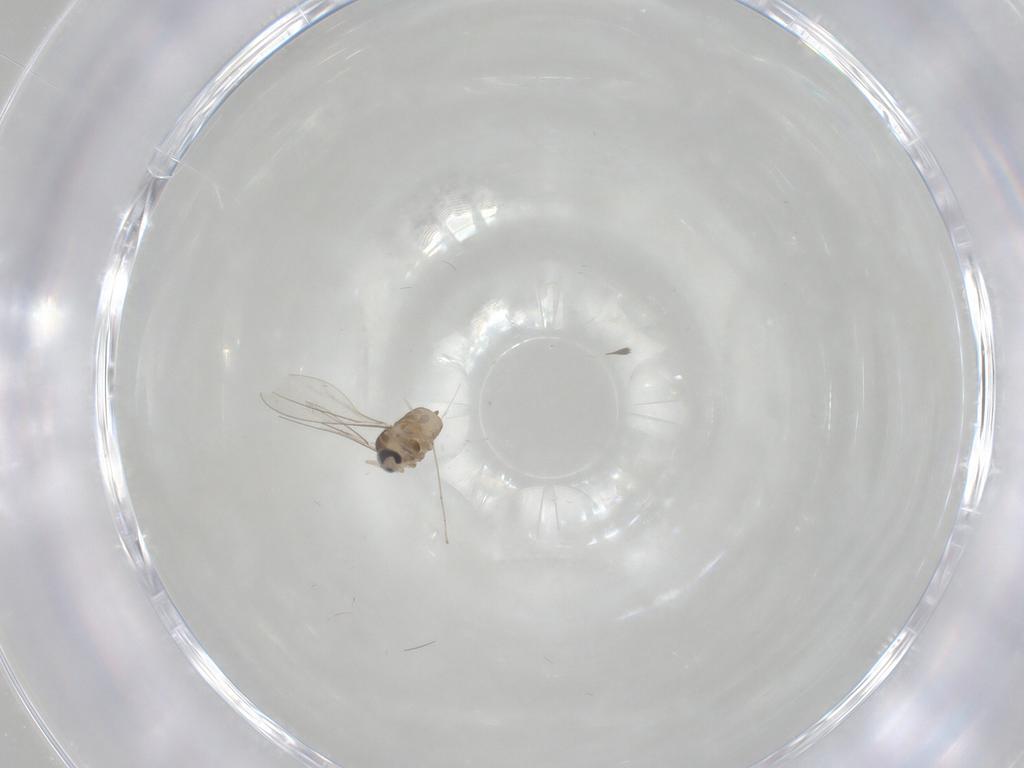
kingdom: Animalia
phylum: Arthropoda
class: Insecta
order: Diptera
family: Cecidomyiidae
